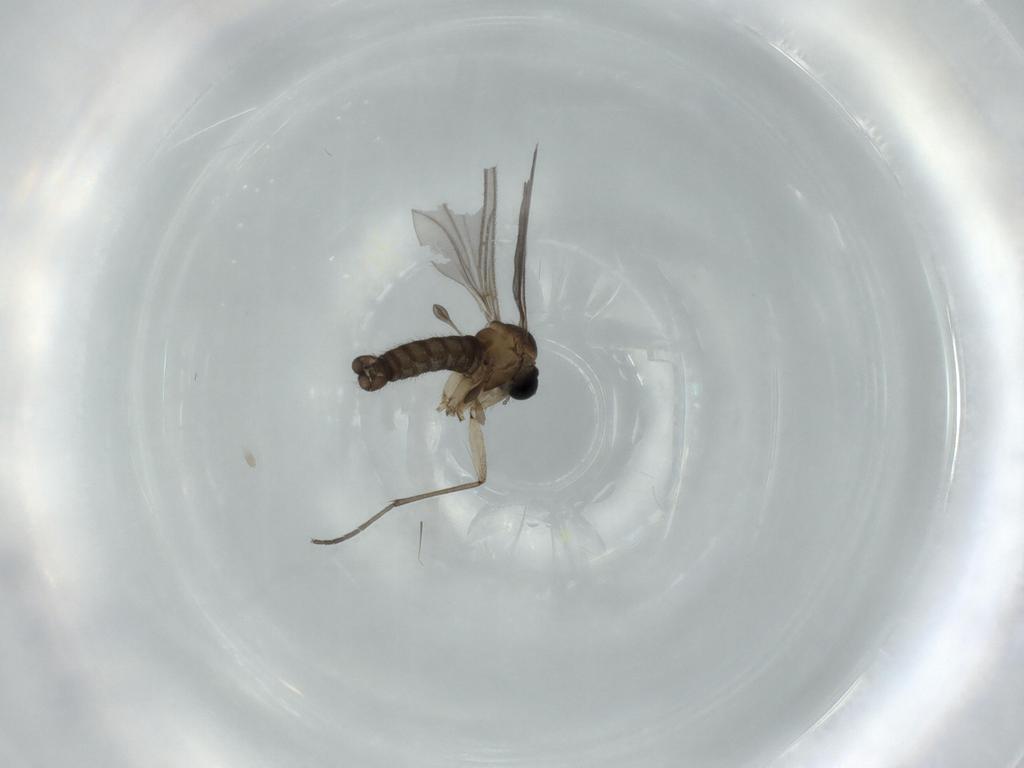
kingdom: Animalia
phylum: Arthropoda
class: Insecta
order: Diptera
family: Sciaridae
